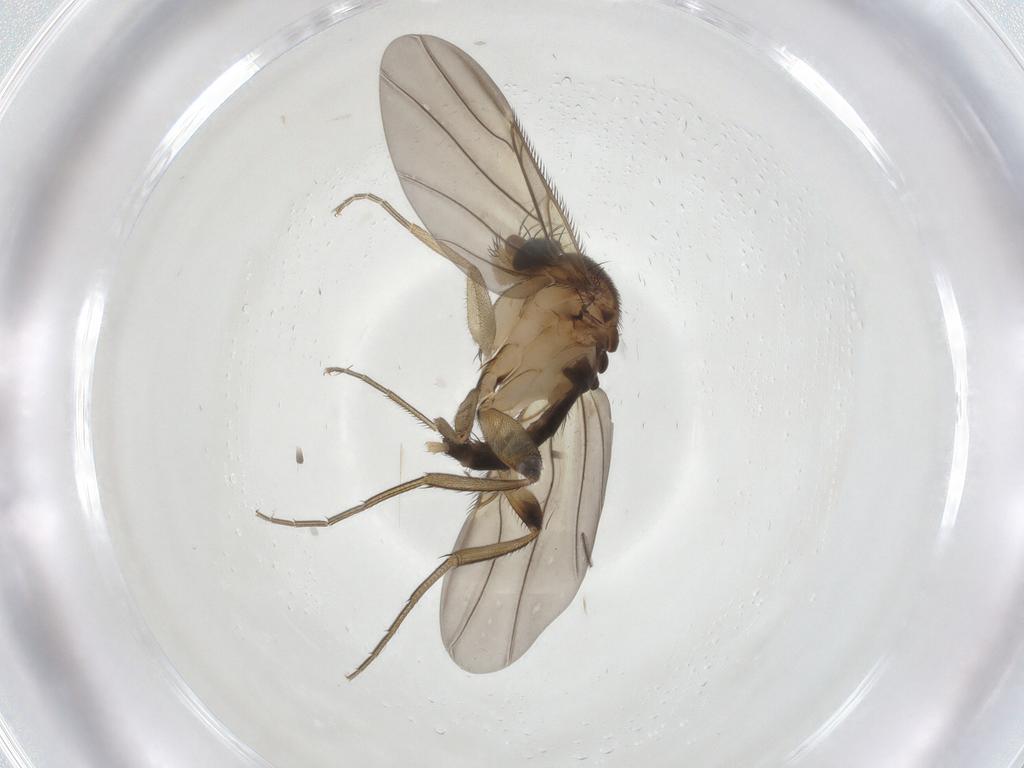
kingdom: Animalia
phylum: Arthropoda
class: Insecta
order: Diptera
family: Phoridae
